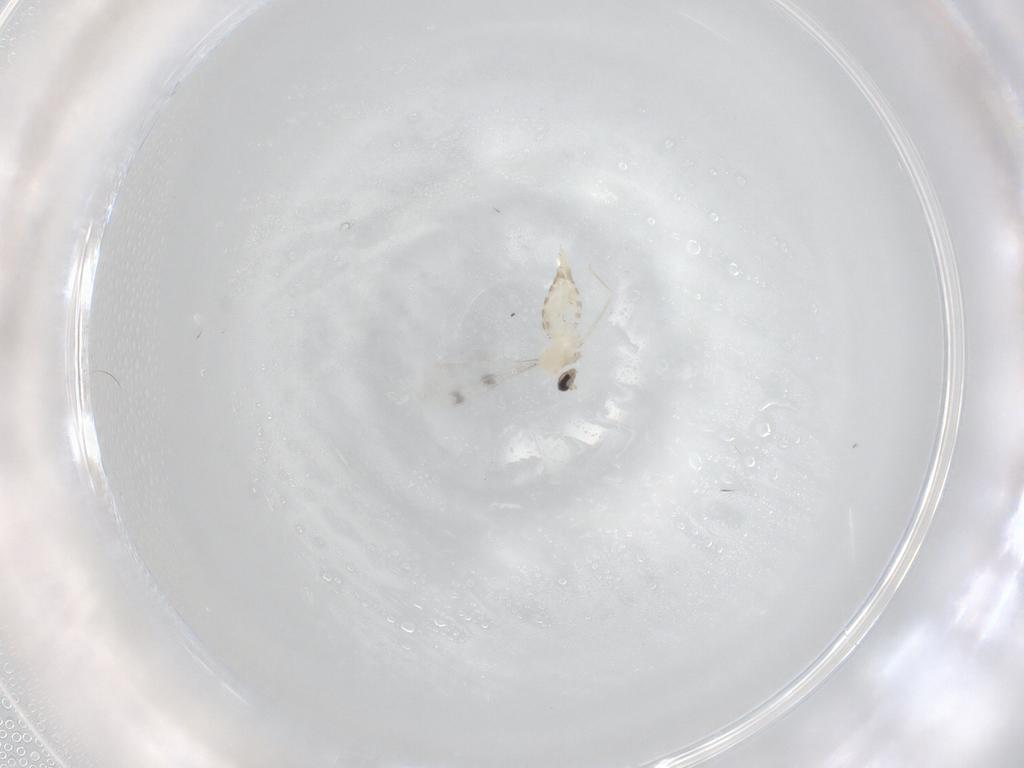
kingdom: Animalia
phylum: Arthropoda
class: Insecta
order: Diptera
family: Cecidomyiidae
